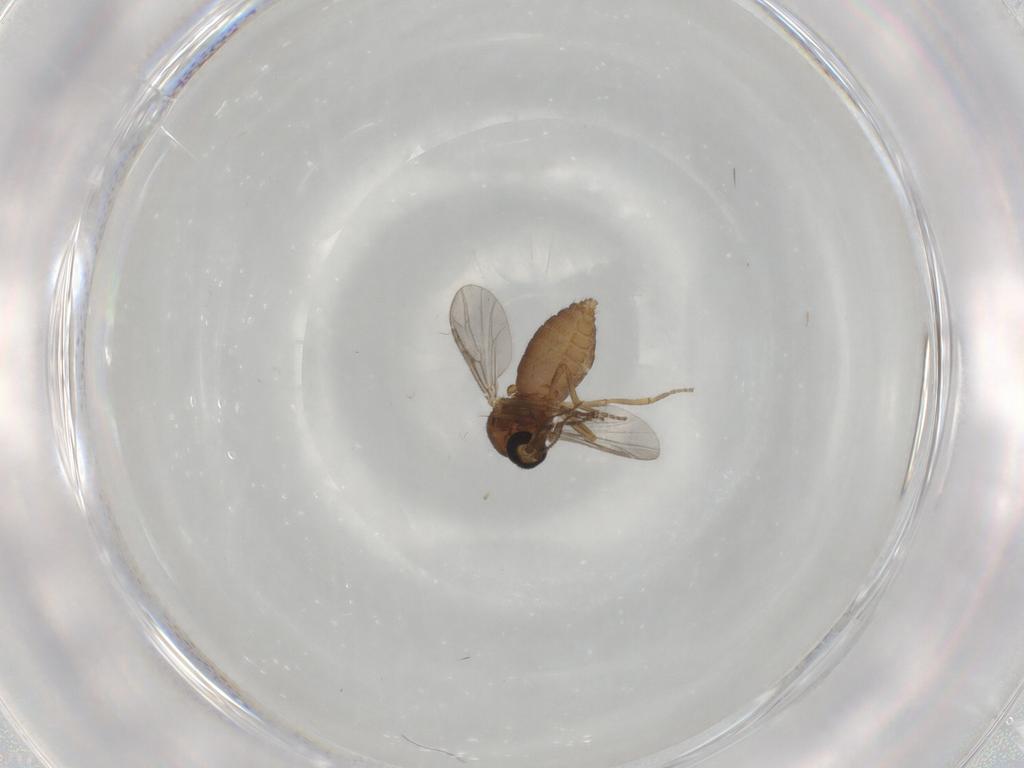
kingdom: Animalia
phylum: Arthropoda
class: Insecta
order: Diptera
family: Ceratopogonidae
